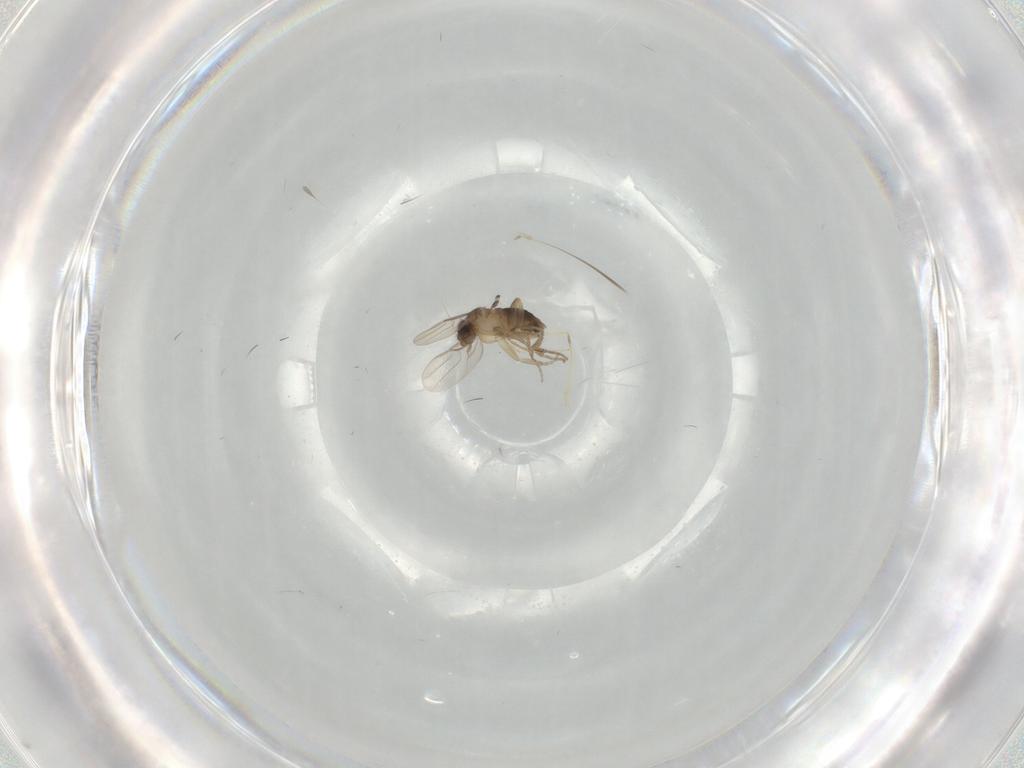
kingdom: Animalia
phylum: Arthropoda
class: Insecta
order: Diptera
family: Phoridae
